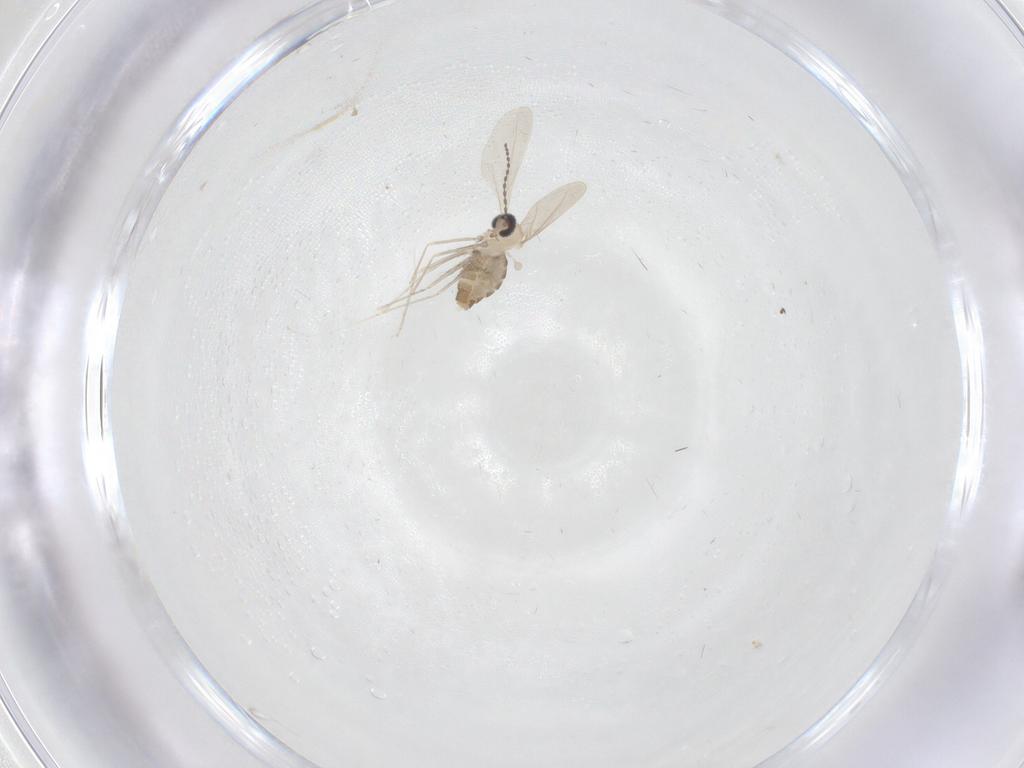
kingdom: Animalia
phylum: Arthropoda
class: Insecta
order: Diptera
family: Cecidomyiidae
